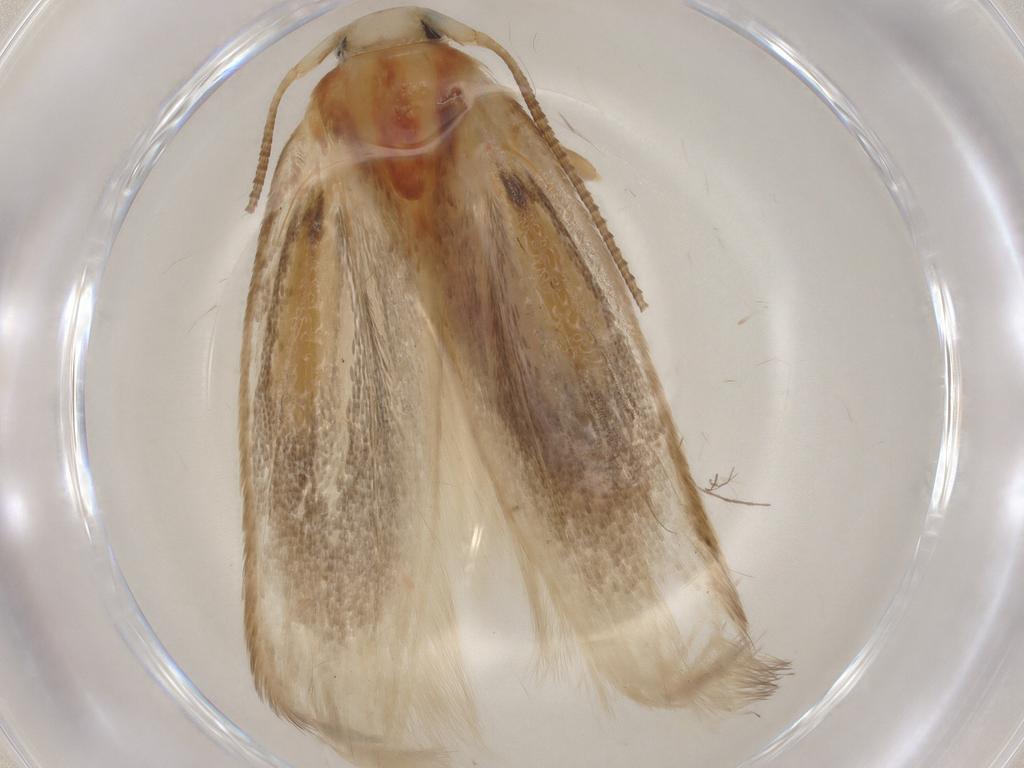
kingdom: Animalia
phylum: Arthropoda
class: Insecta
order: Lepidoptera
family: Geometridae
